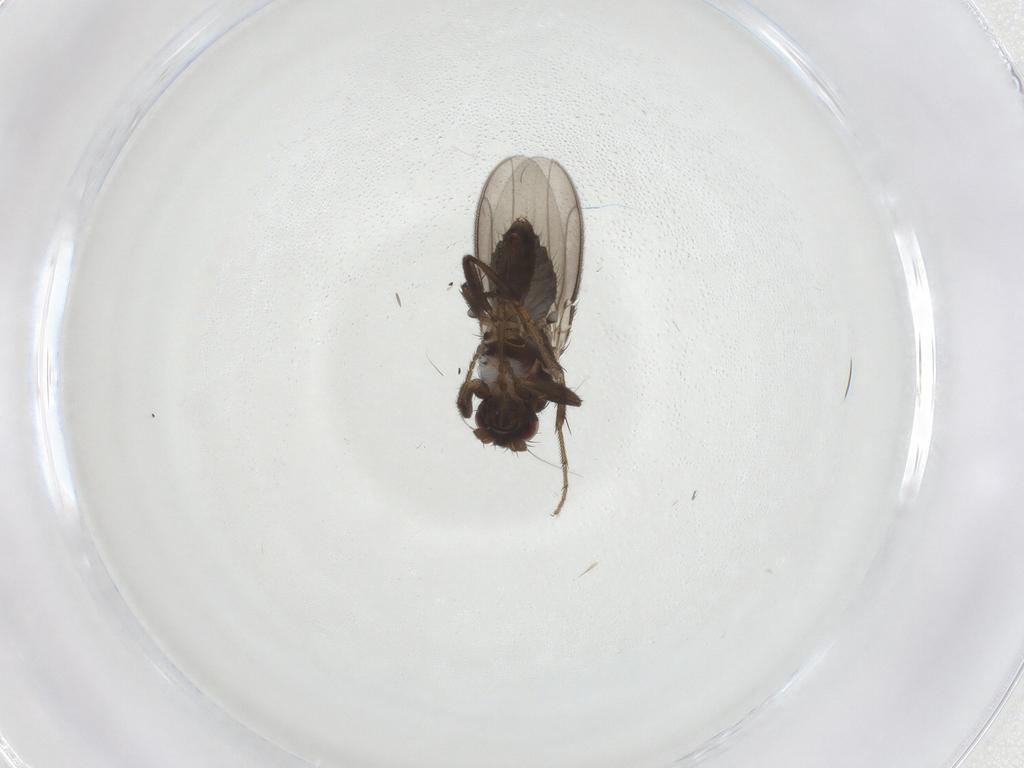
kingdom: Animalia
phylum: Arthropoda
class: Insecta
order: Diptera
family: Sphaeroceridae
